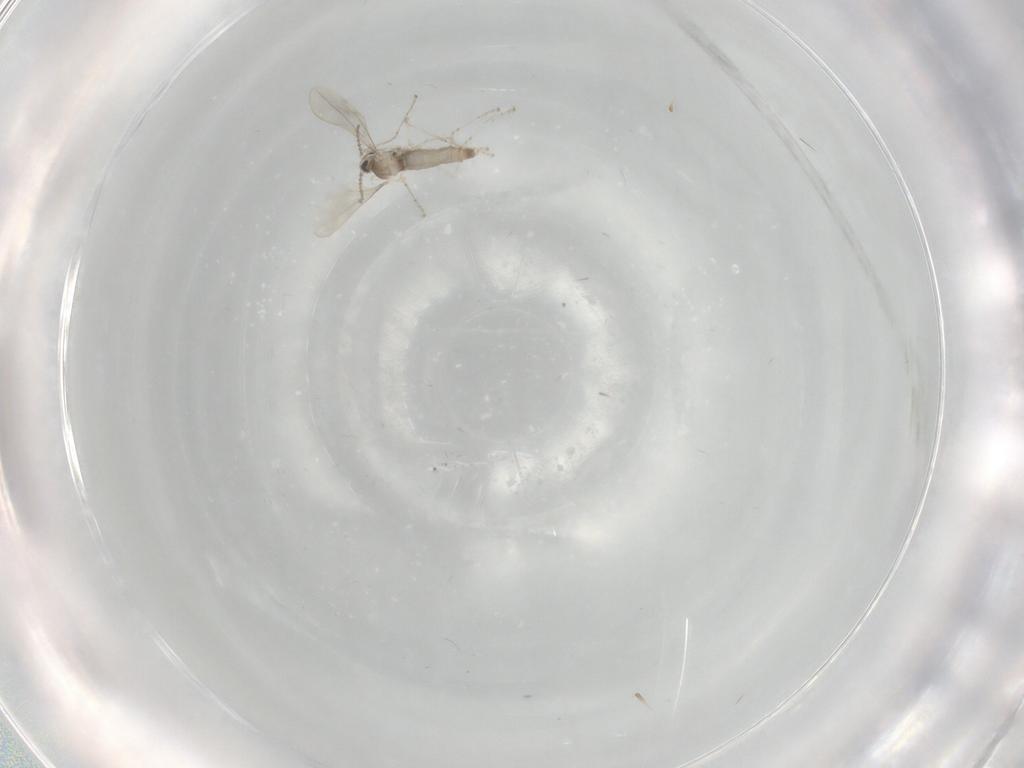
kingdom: Animalia
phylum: Arthropoda
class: Insecta
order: Diptera
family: Cecidomyiidae
